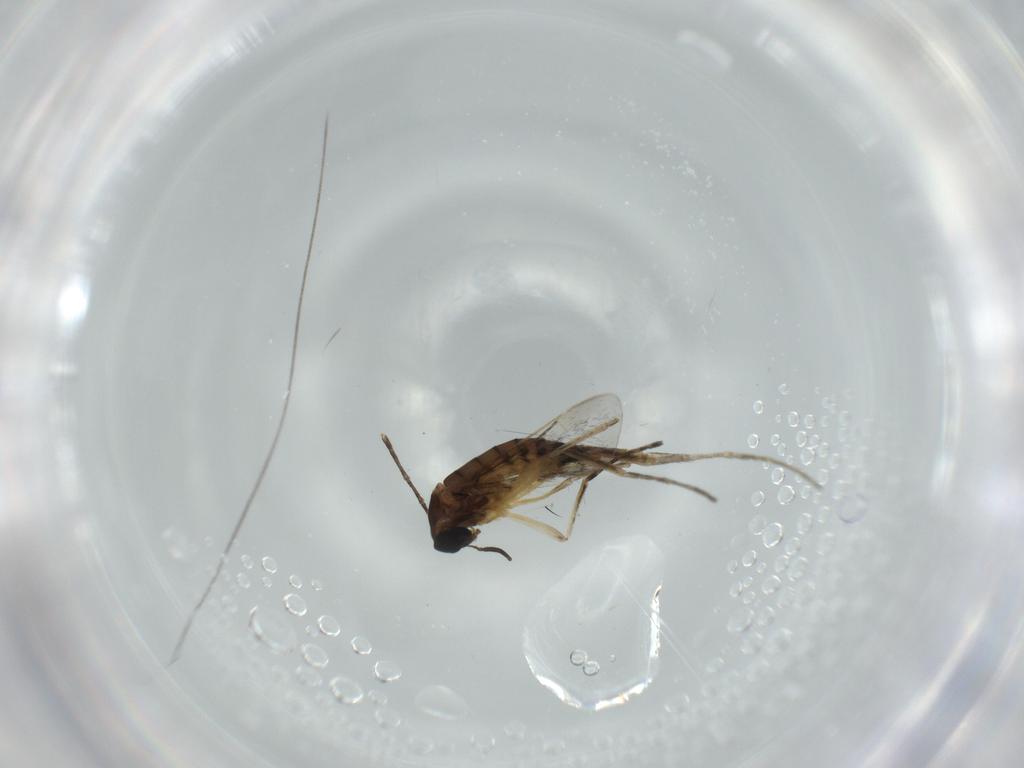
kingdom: Animalia
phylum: Arthropoda
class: Insecta
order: Diptera
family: Cecidomyiidae
